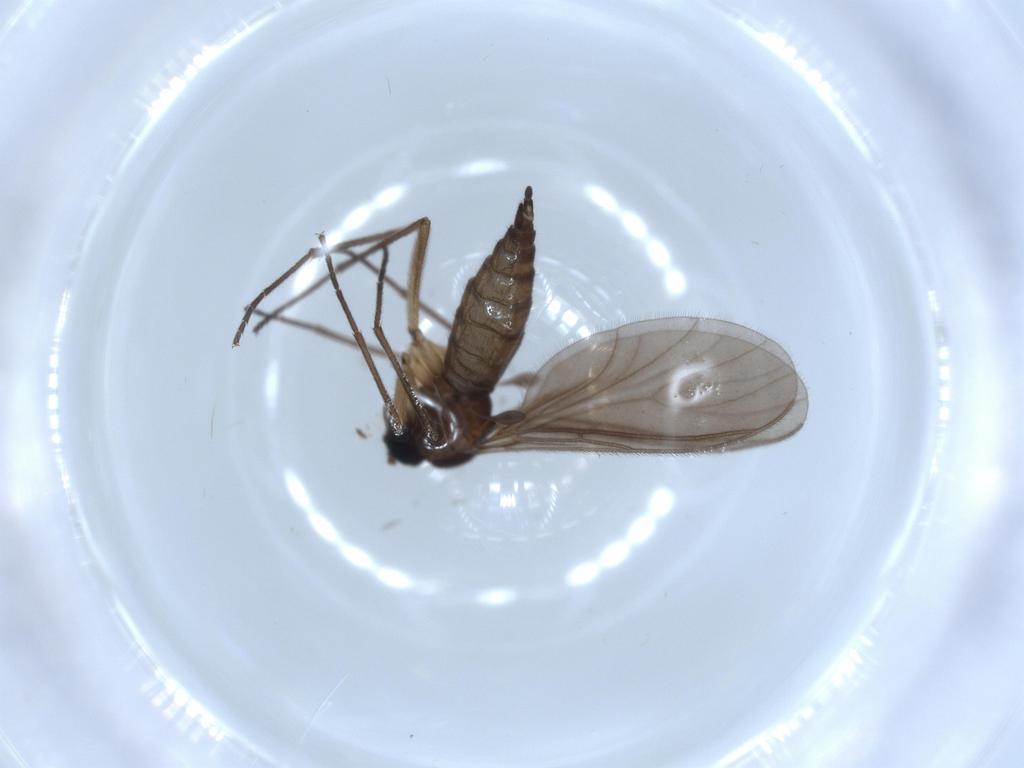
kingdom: Animalia
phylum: Arthropoda
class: Insecta
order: Diptera
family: Sciaridae
